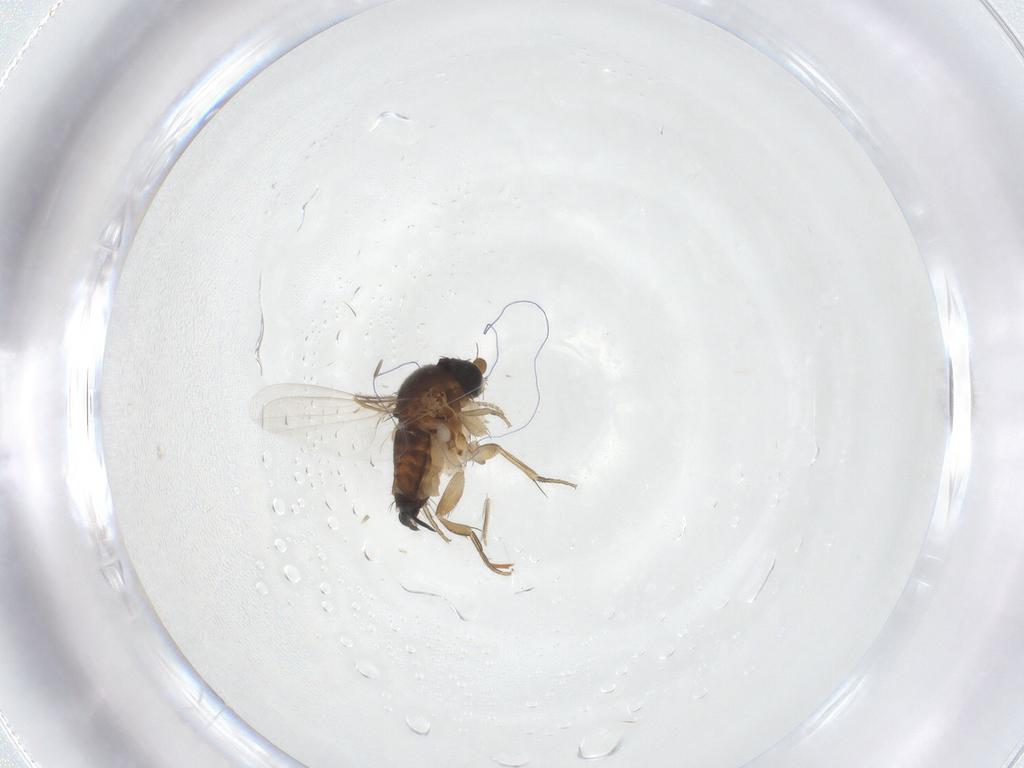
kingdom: Animalia
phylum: Arthropoda
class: Insecta
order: Diptera
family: Phoridae
